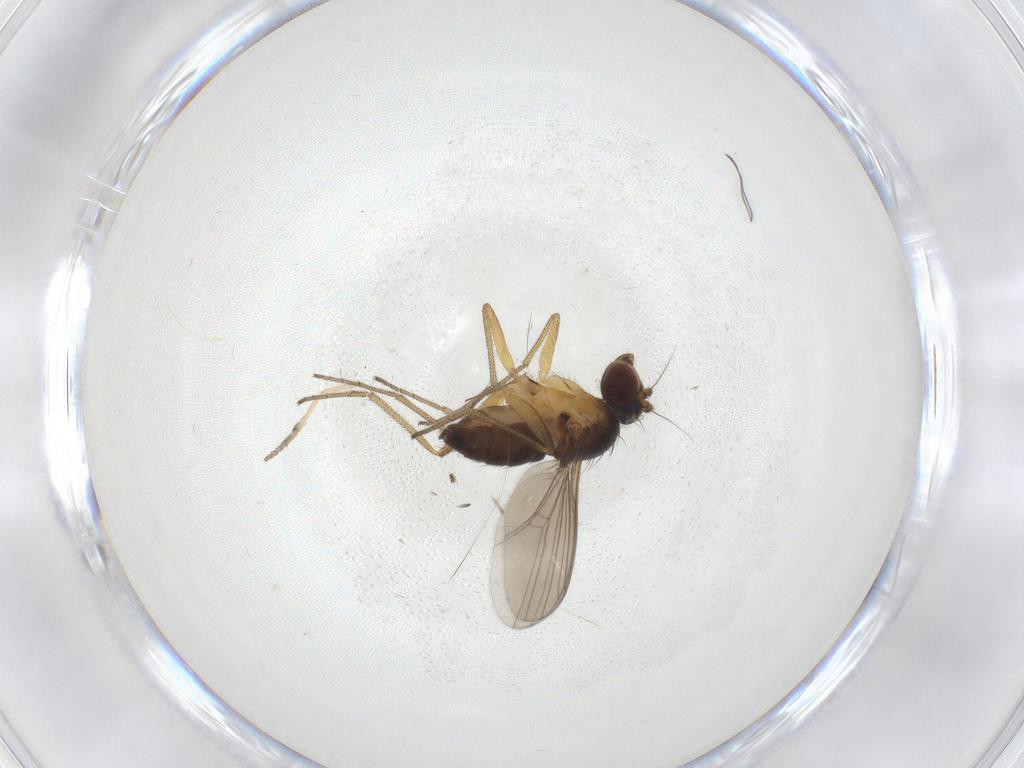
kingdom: Animalia
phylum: Arthropoda
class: Insecta
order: Diptera
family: Dolichopodidae
